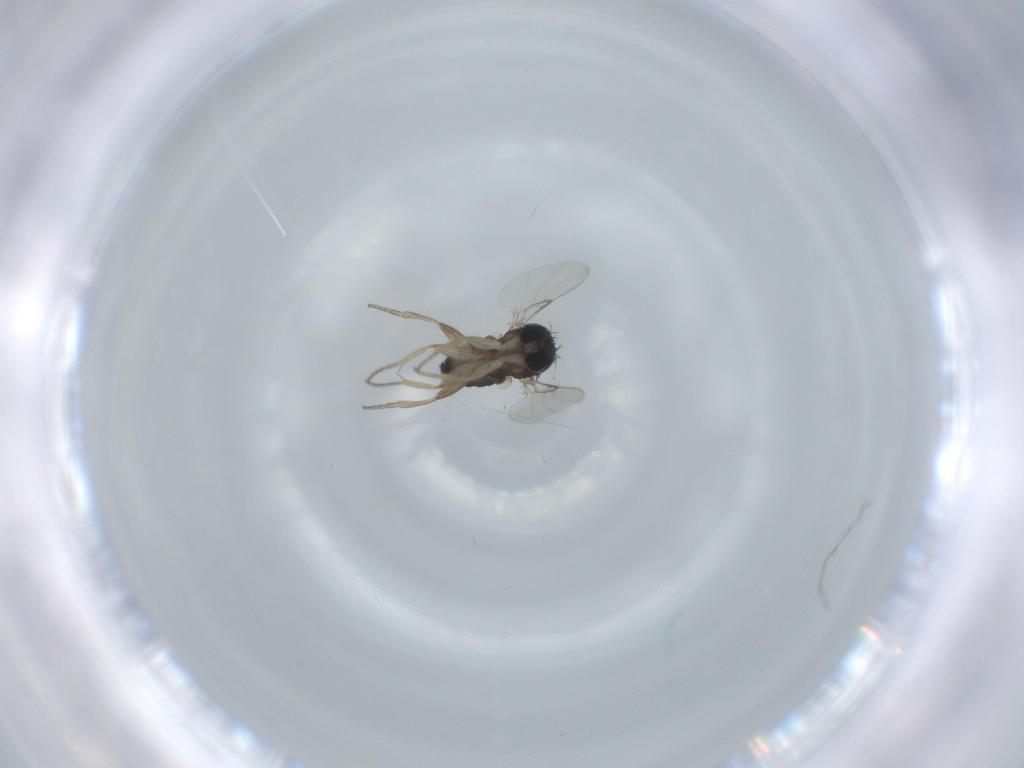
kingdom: Animalia
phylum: Arthropoda
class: Insecta
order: Diptera
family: Phoridae
